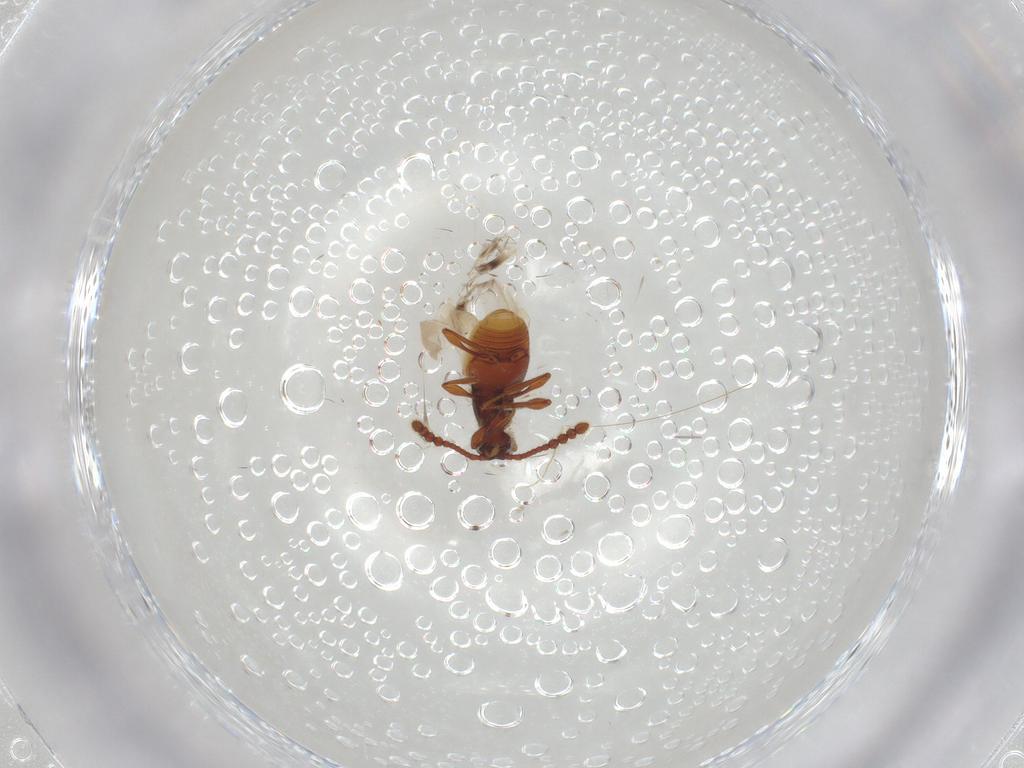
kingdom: Animalia
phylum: Arthropoda
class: Insecta
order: Coleoptera
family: Staphylinidae
